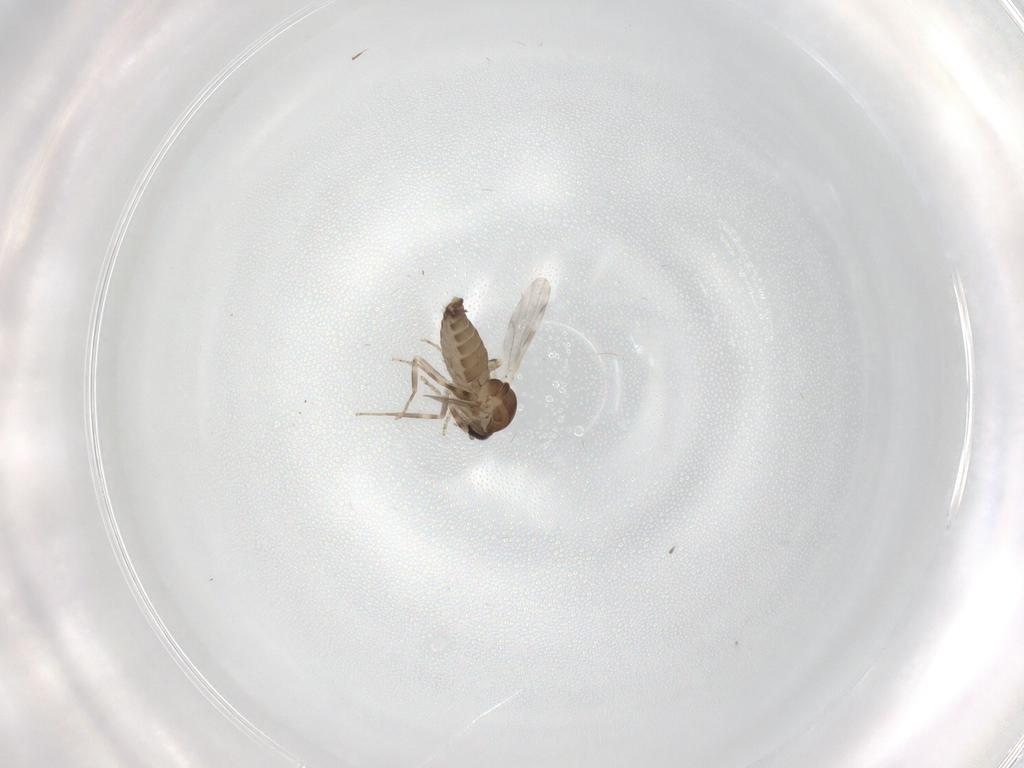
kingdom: Animalia
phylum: Arthropoda
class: Insecta
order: Diptera
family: Ceratopogonidae
